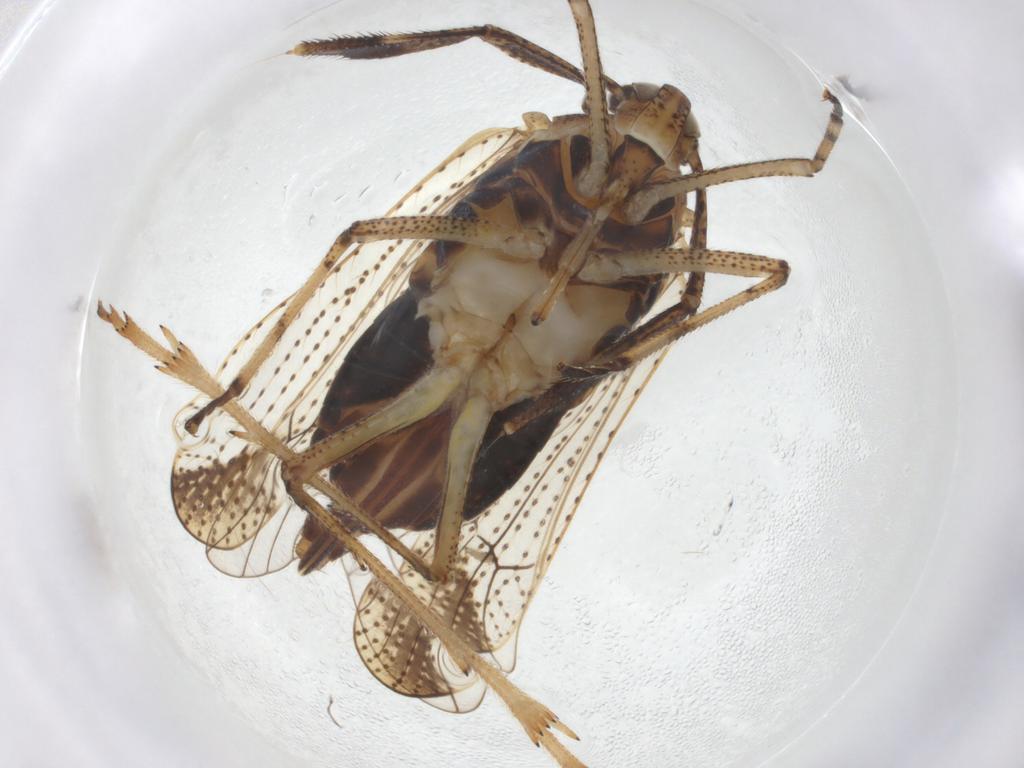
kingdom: Animalia
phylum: Arthropoda
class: Insecta
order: Hemiptera
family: Delphacidae
